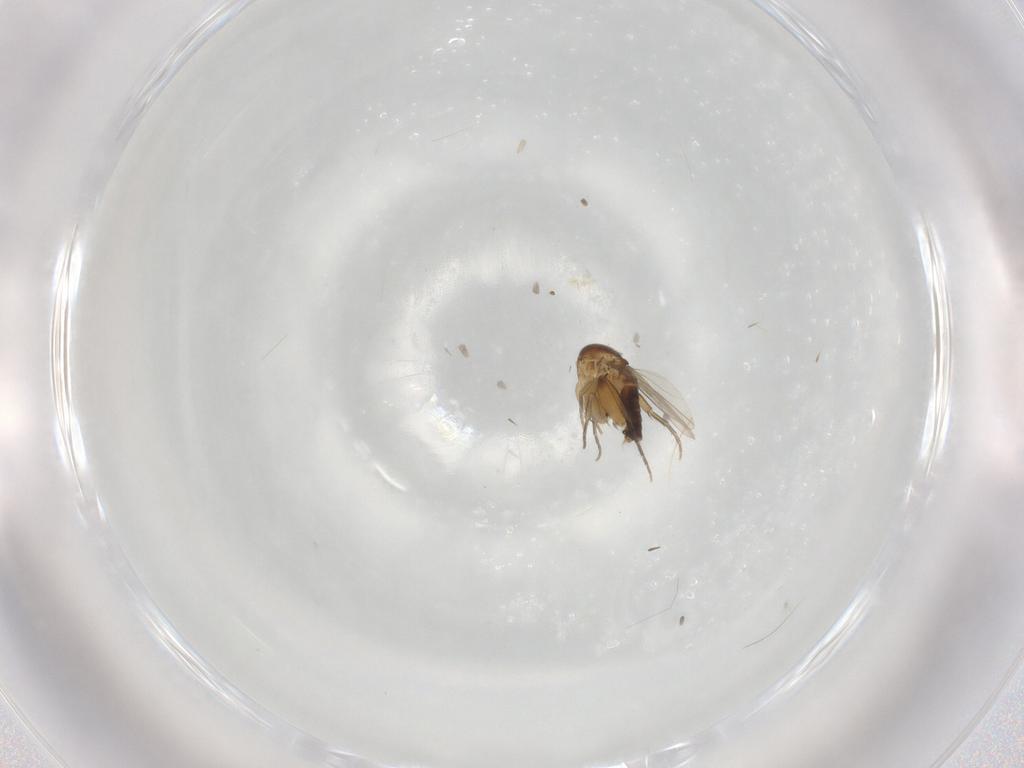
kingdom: Animalia
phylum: Arthropoda
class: Insecta
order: Diptera
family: Phoridae
